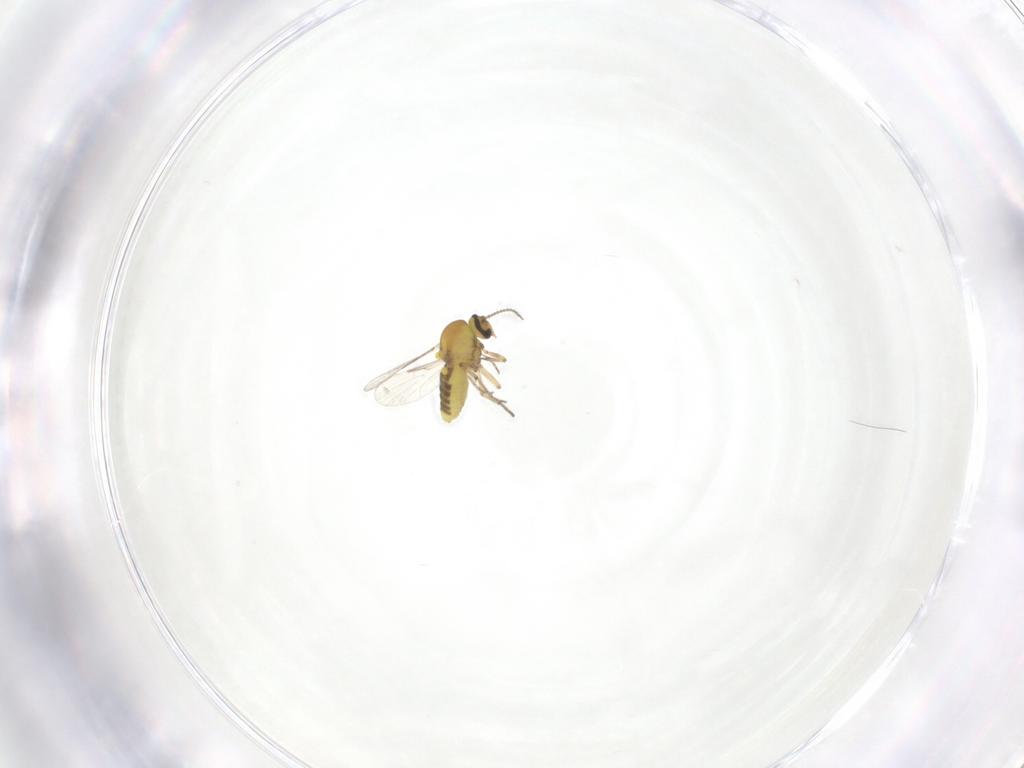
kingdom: Animalia
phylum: Arthropoda
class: Insecta
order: Diptera
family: Ceratopogonidae
